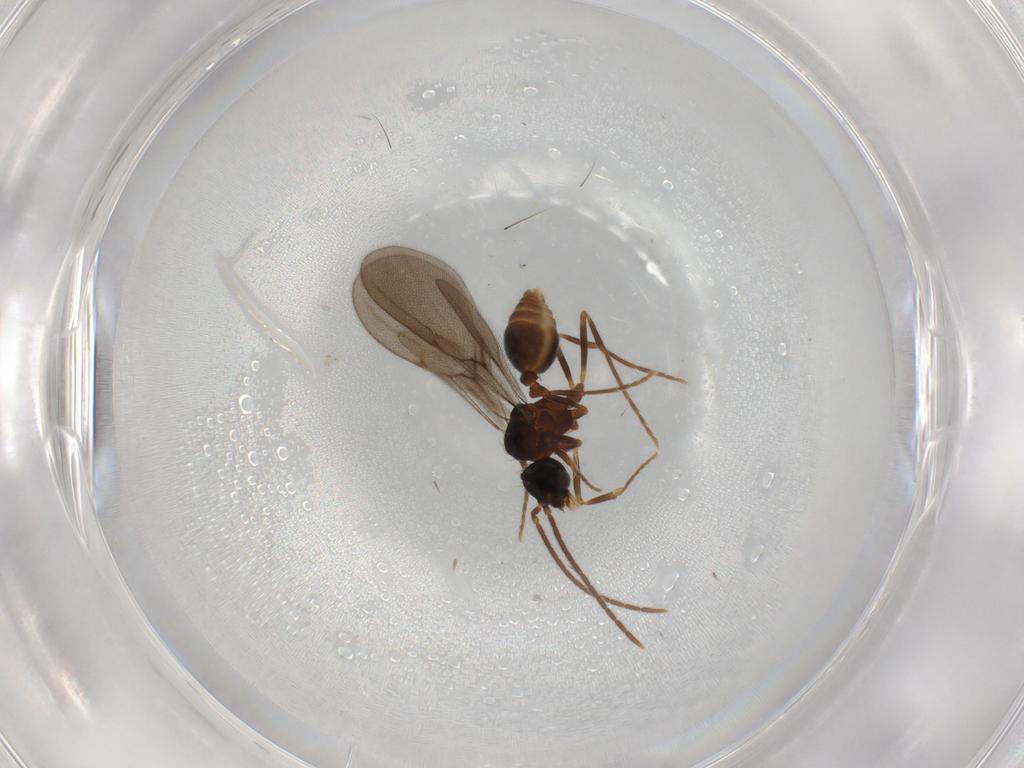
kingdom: Animalia
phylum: Arthropoda
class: Insecta
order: Hymenoptera
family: Formicidae
